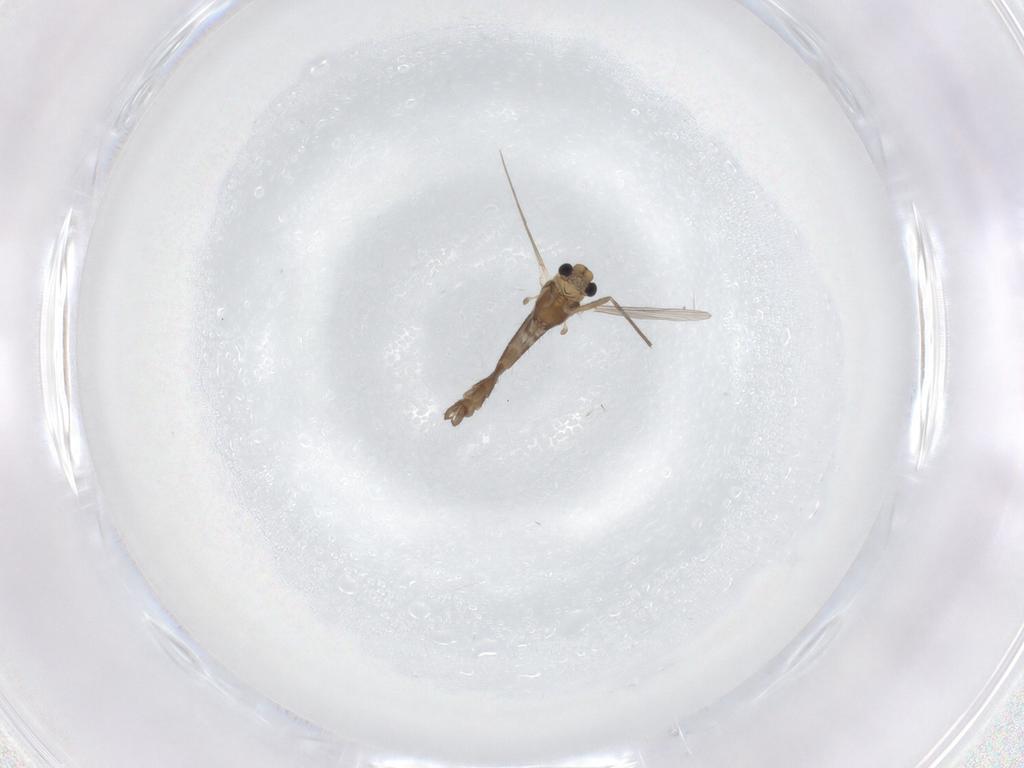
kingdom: Animalia
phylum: Arthropoda
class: Insecta
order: Diptera
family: Chironomidae
